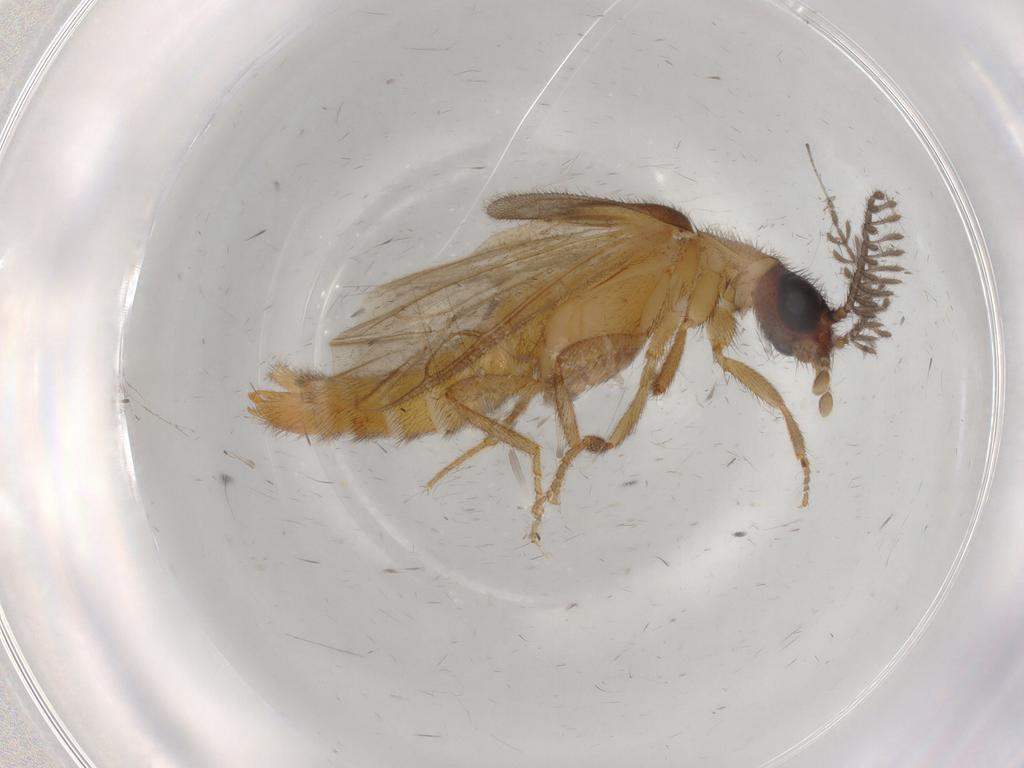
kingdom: Animalia
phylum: Arthropoda
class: Insecta
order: Coleoptera
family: Mordellidae
